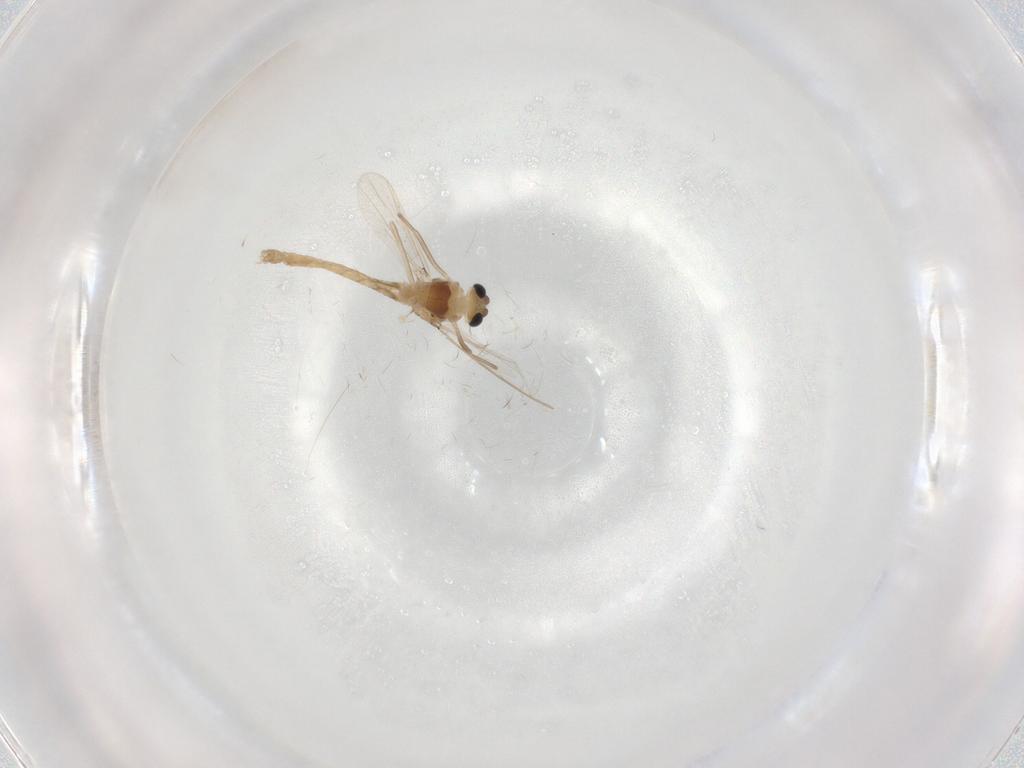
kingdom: Animalia
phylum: Arthropoda
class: Insecta
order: Diptera
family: Chironomidae
